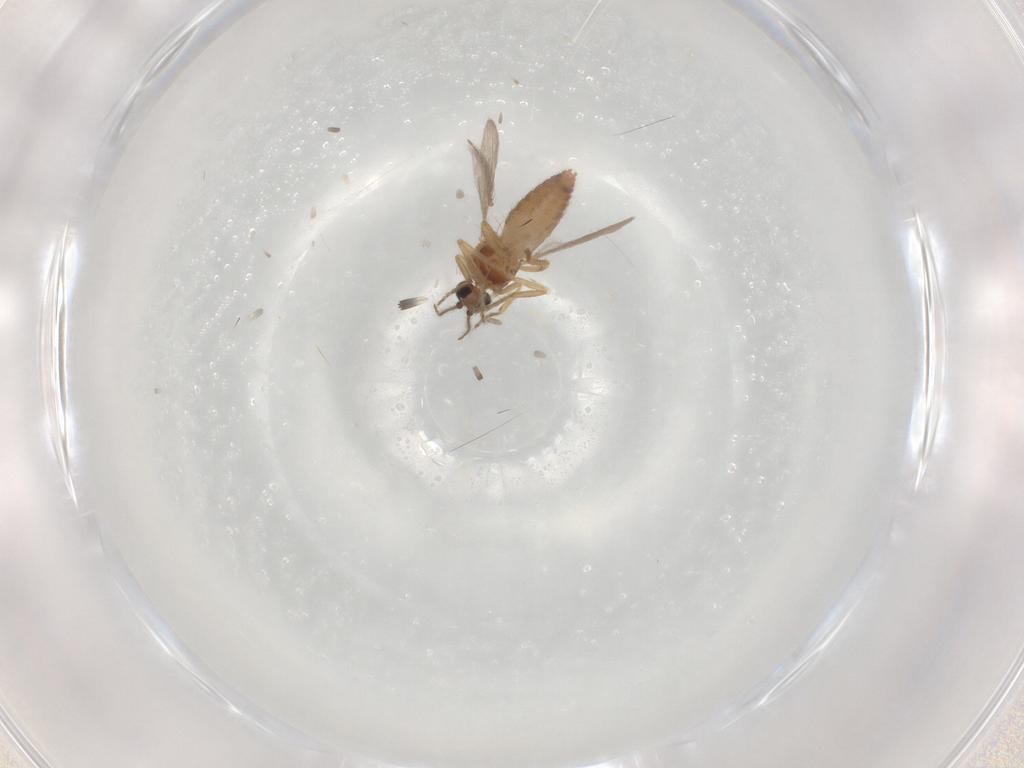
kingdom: Animalia
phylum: Arthropoda
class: Insecta
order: Diptera
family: Ceratopogonidae
